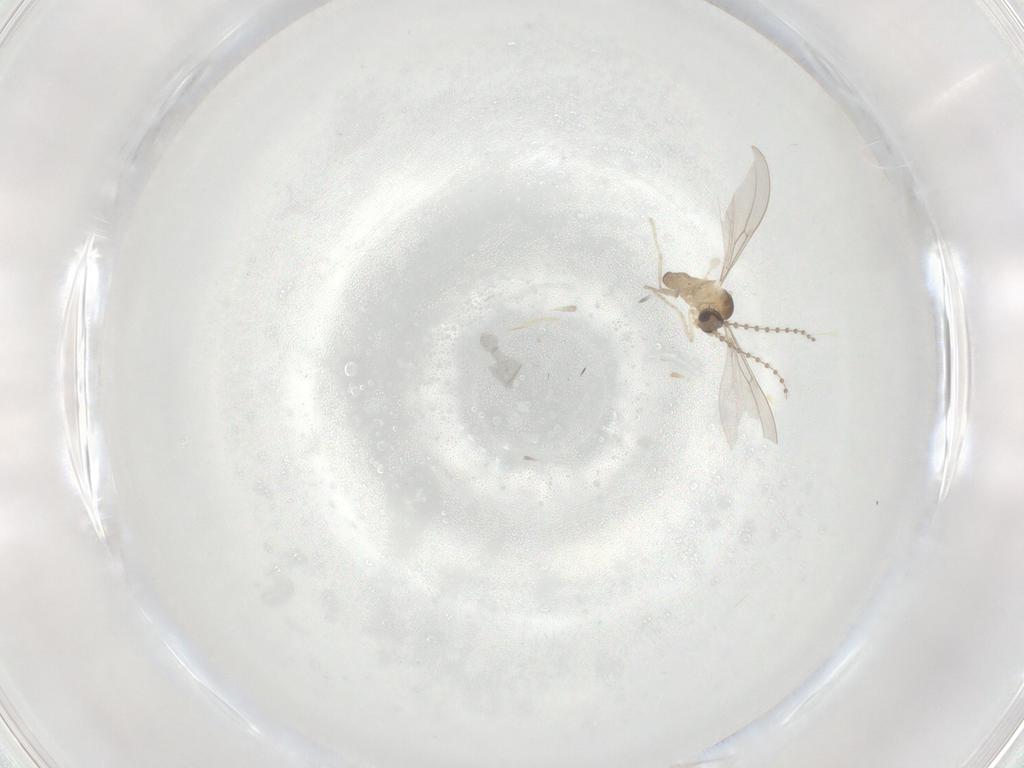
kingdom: Animalia
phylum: Arthropoda
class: Insecta
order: Diptera
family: Cecidomyiidae
